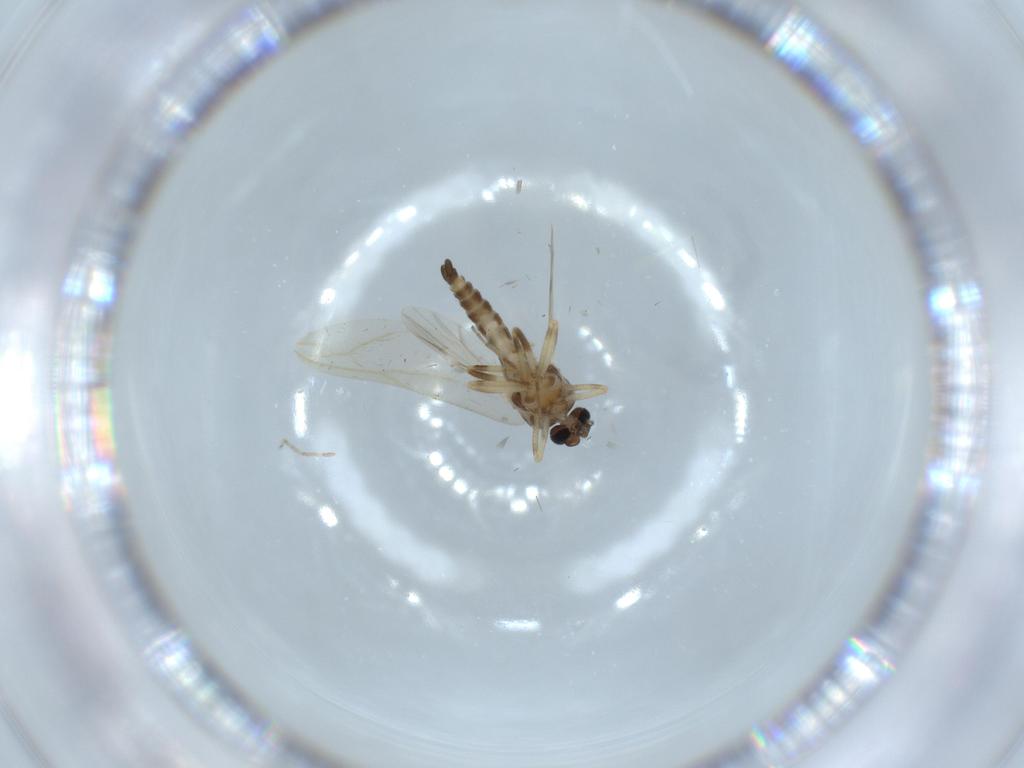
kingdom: Animalia
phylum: Arthropoda
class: Insecta
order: Diptera
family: Ceratopogonidae
